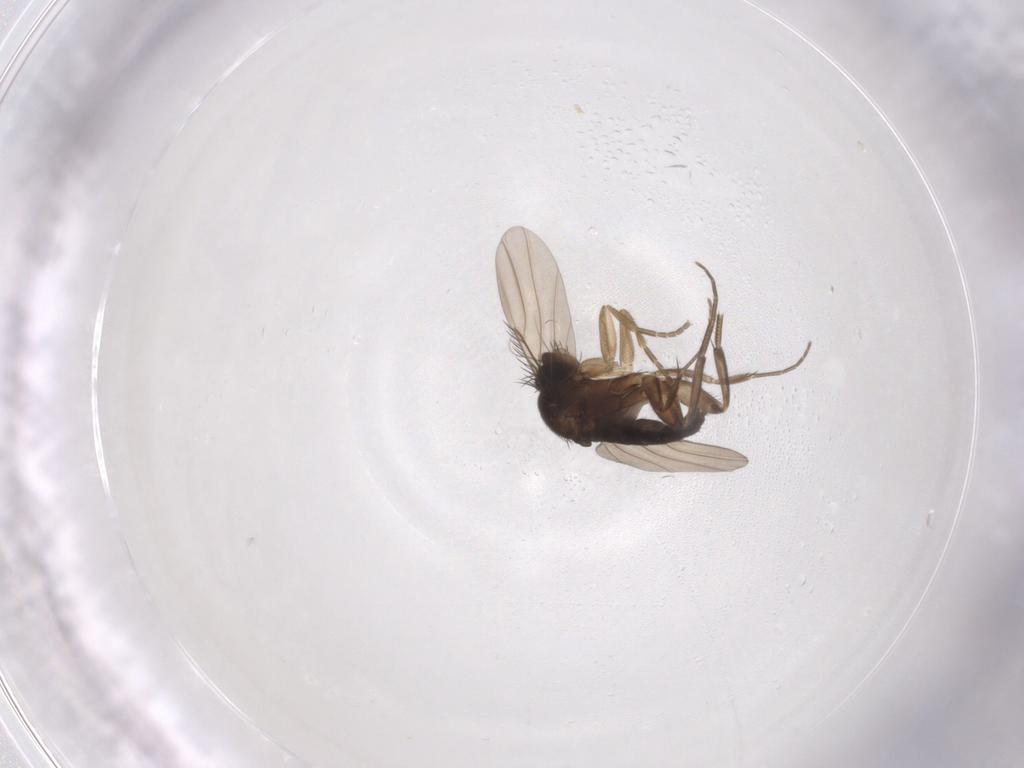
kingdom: Animalia
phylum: Arthropoda
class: Insecta
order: Diptera
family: Phoridae
